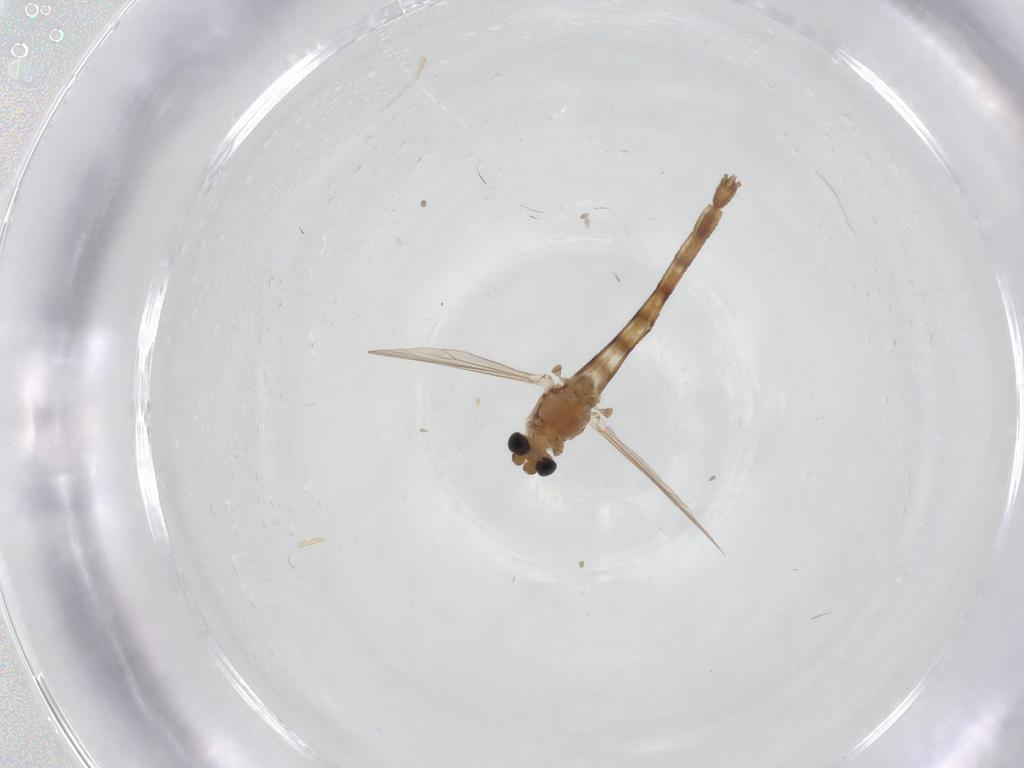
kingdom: Animalia
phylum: Arthropoda
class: Insecta
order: Diptera
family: Chironomidae
